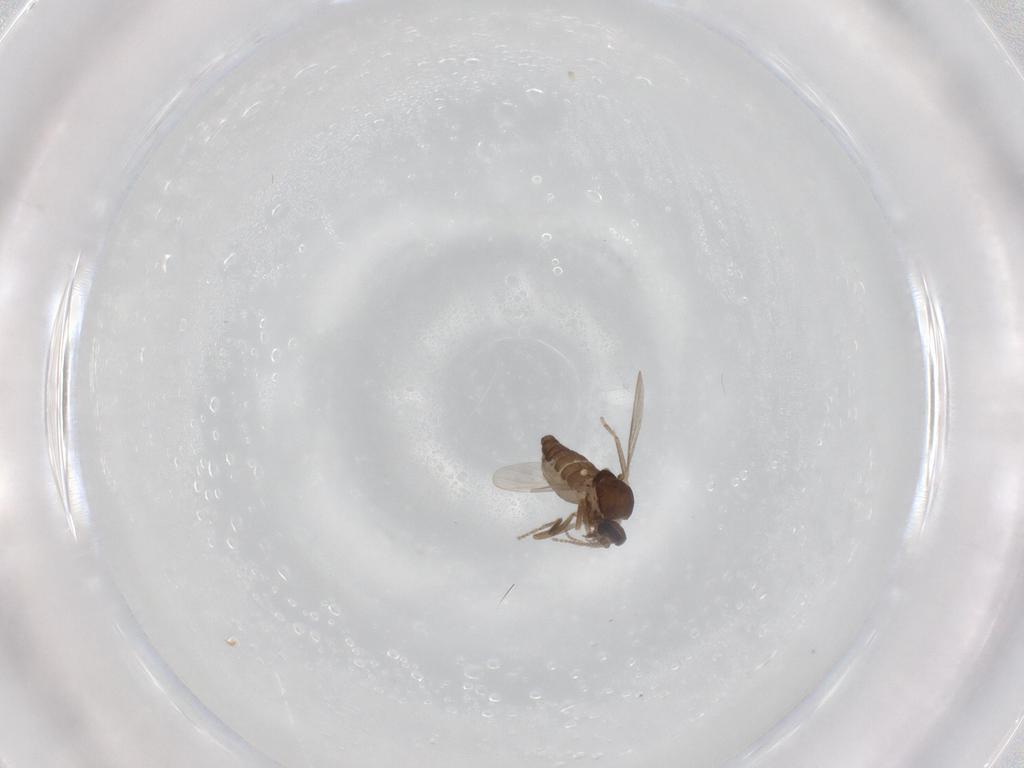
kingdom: Animalia
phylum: Arthropoda
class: Insecta
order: Diptera
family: Ceratopogonidae
